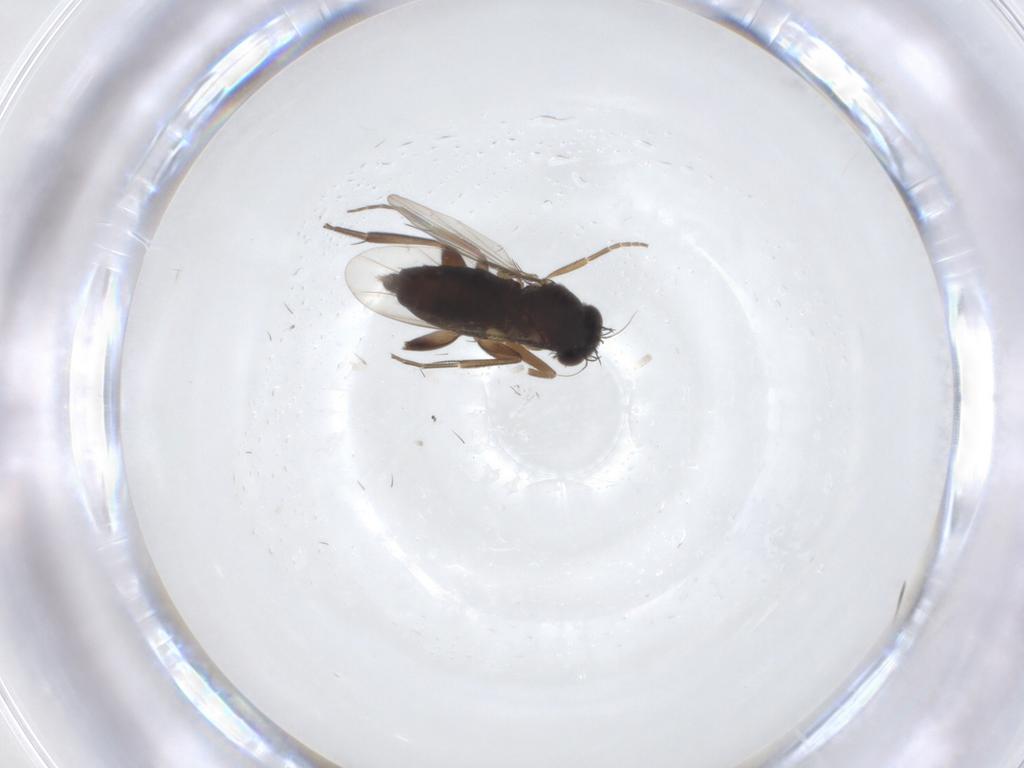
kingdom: Animalia
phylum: Arthropoda
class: Insecta
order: Diptera
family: Phoridae
